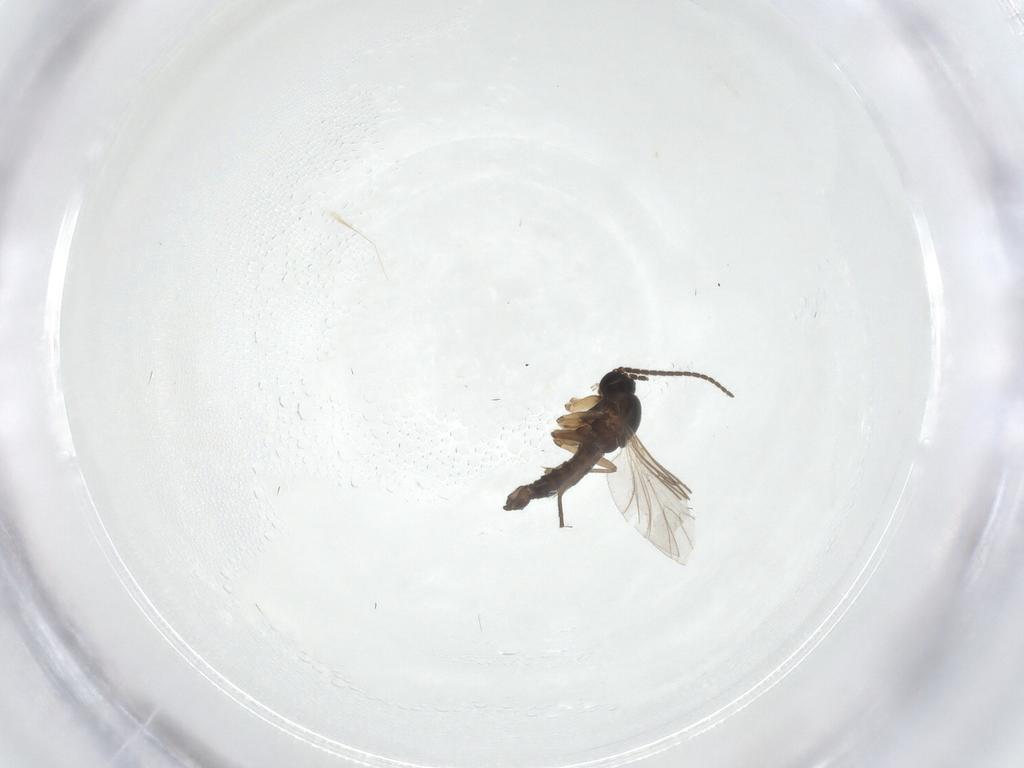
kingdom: Animalia
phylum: Arthropoda
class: Insecta
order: Diptera
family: Sciaridae
